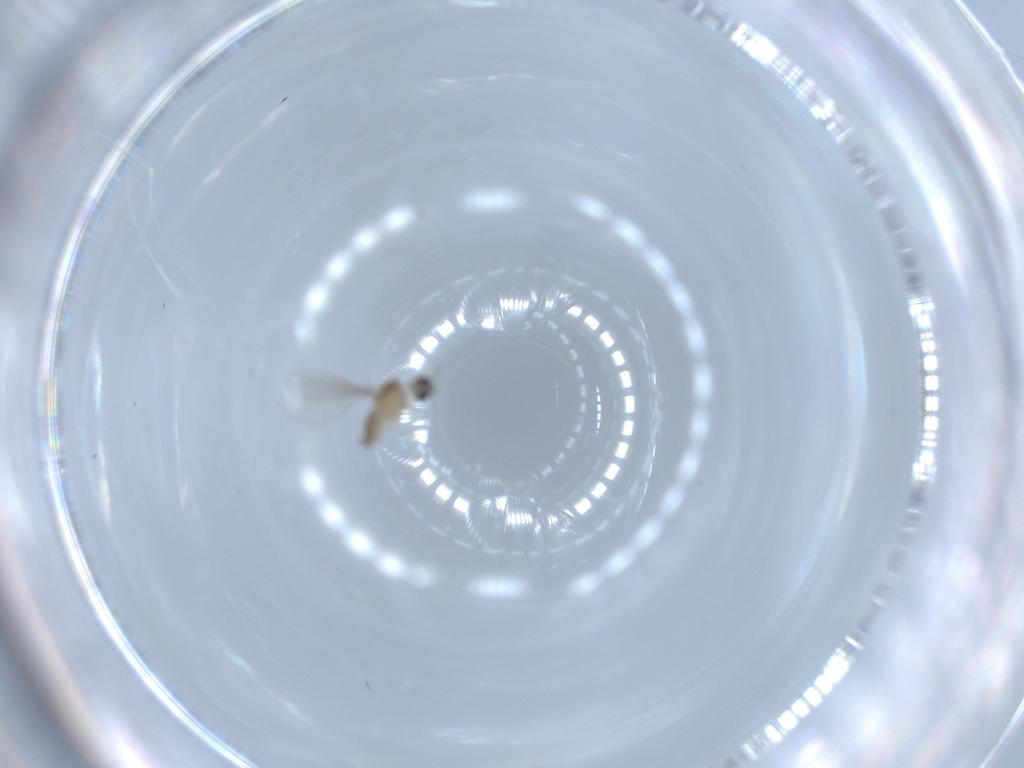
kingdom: Animalia
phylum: Arthropoda
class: Insecta
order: Diptera
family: Cecidomyiidae
